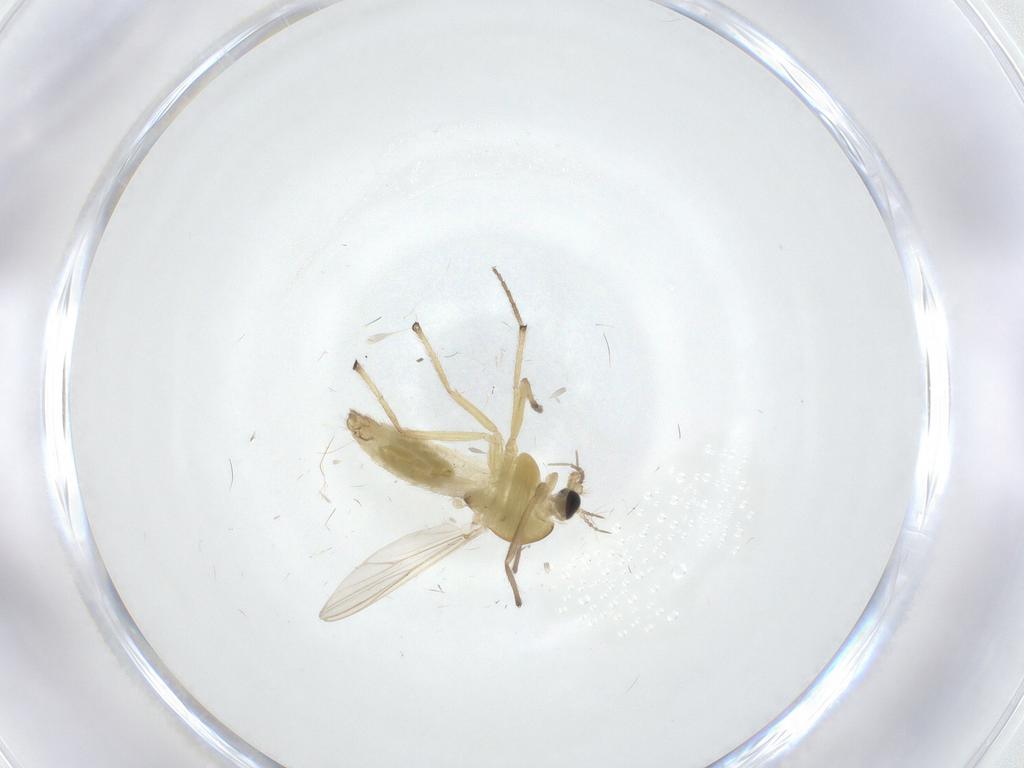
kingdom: Animalia
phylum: Arthropoda
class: Insecta
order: Diptera
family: Chironomidae
